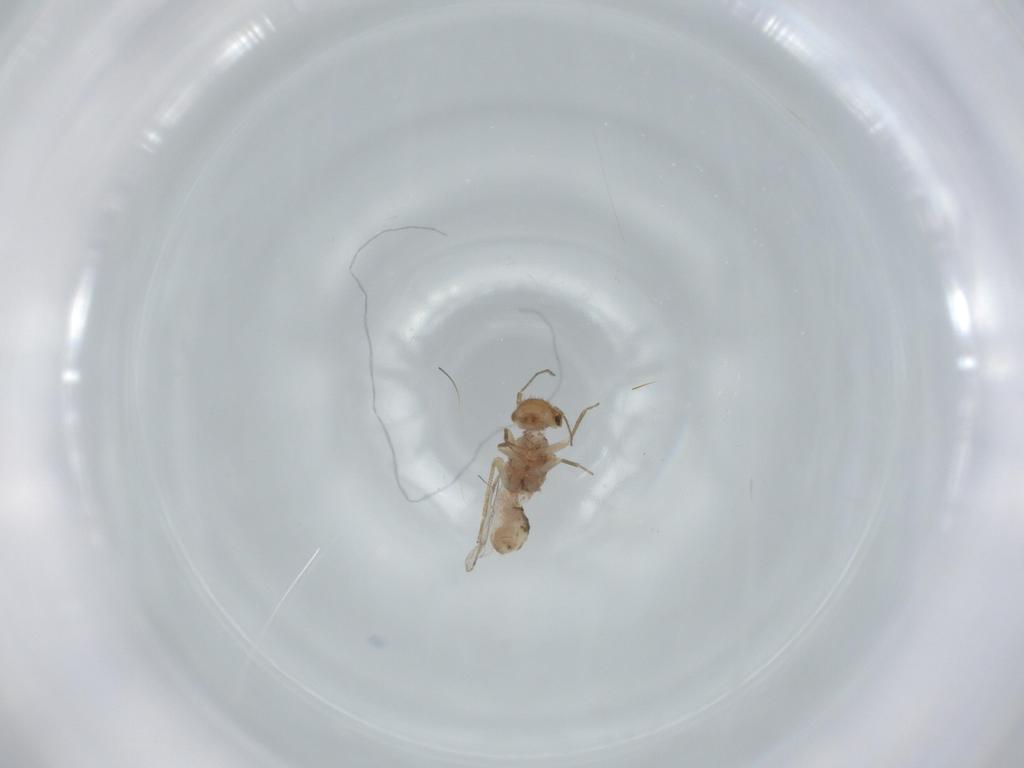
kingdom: Animalia
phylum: Arthropoda
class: Insecta
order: Psocodea
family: Ectopsocidae
